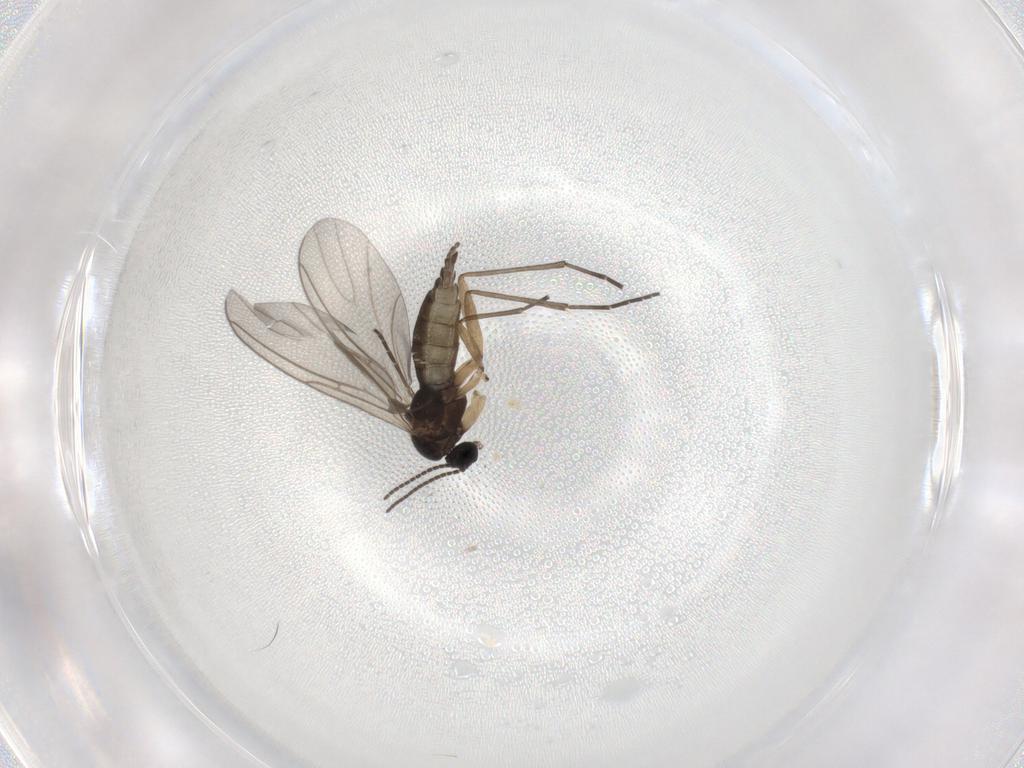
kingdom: Animalia
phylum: Arthropoda
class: Insecta
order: Diptera
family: Sciaridae
